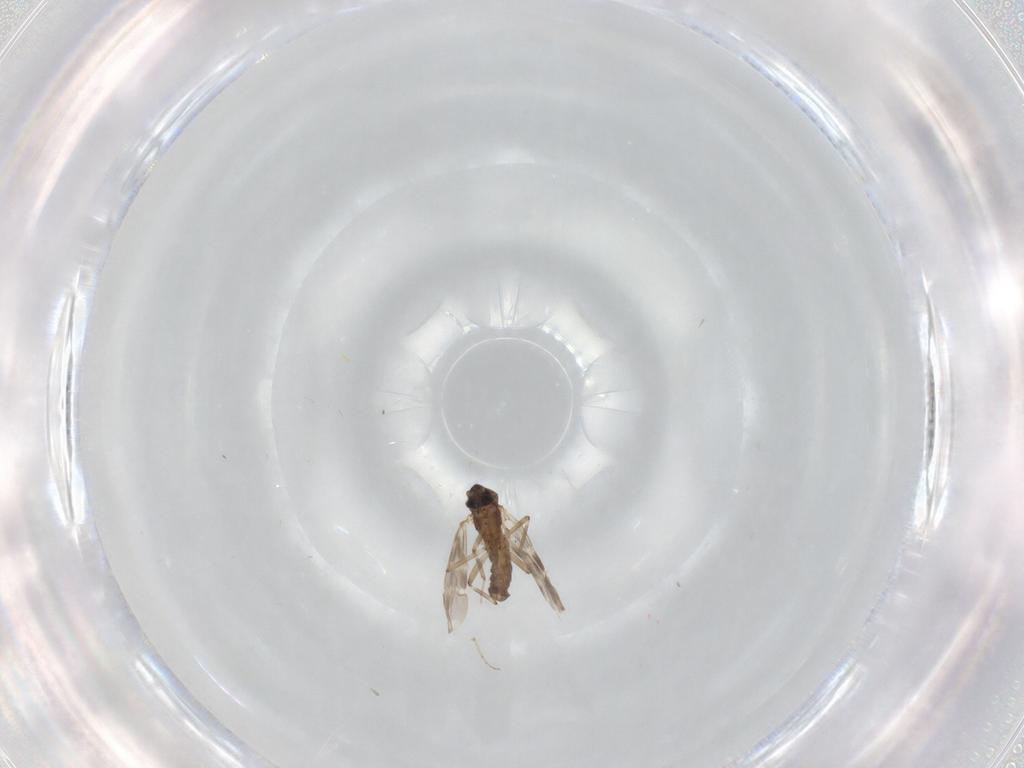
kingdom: Animalia
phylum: Arthropoda
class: Insecta
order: Diptera
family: Ceratopogonidae
